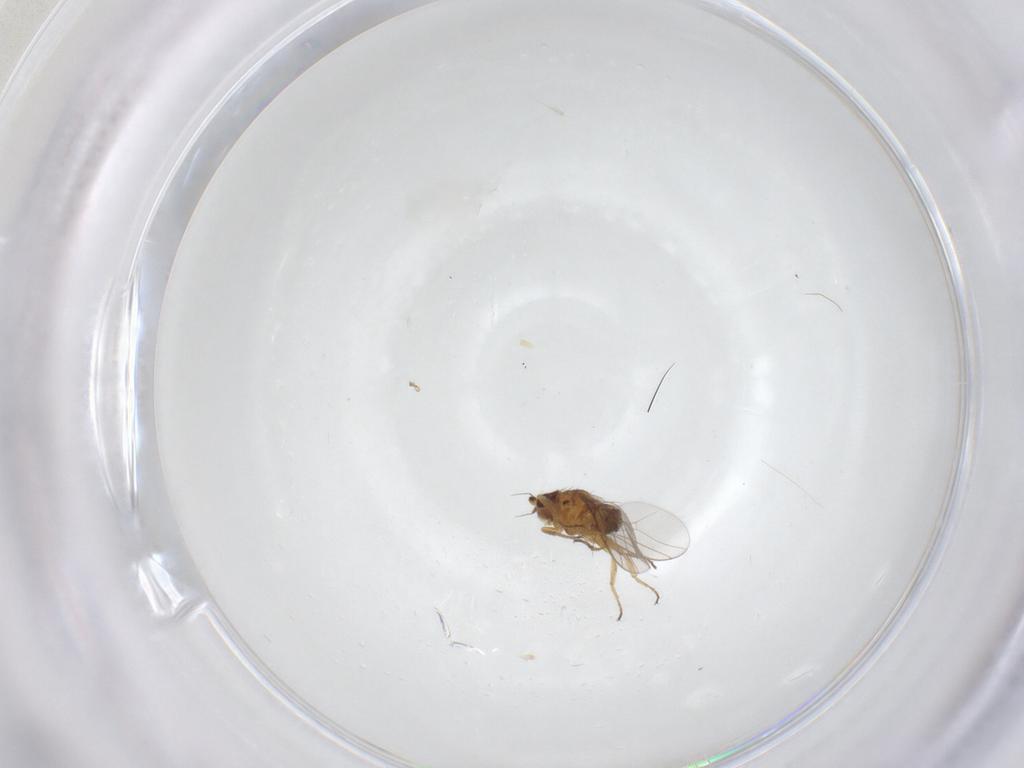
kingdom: Animalia
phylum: Arthropoda
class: Insecta
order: Diptera
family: Chloropidae
